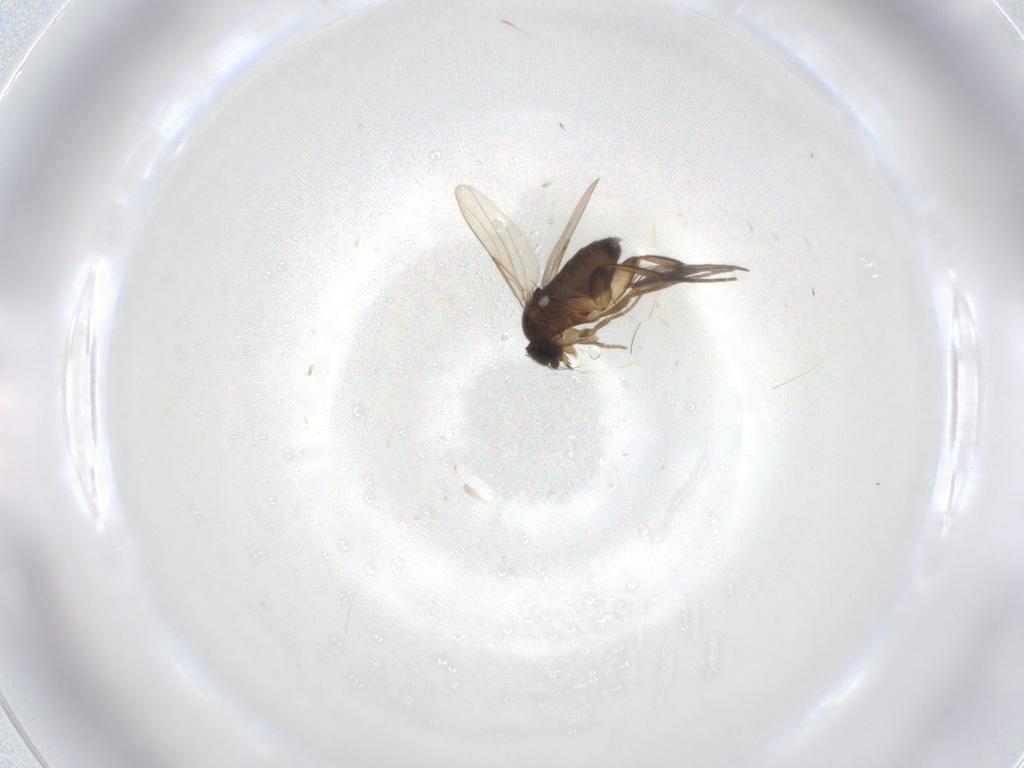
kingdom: Animalia
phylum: Arthropoda
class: Insecta
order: Diptera
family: Phoridae
